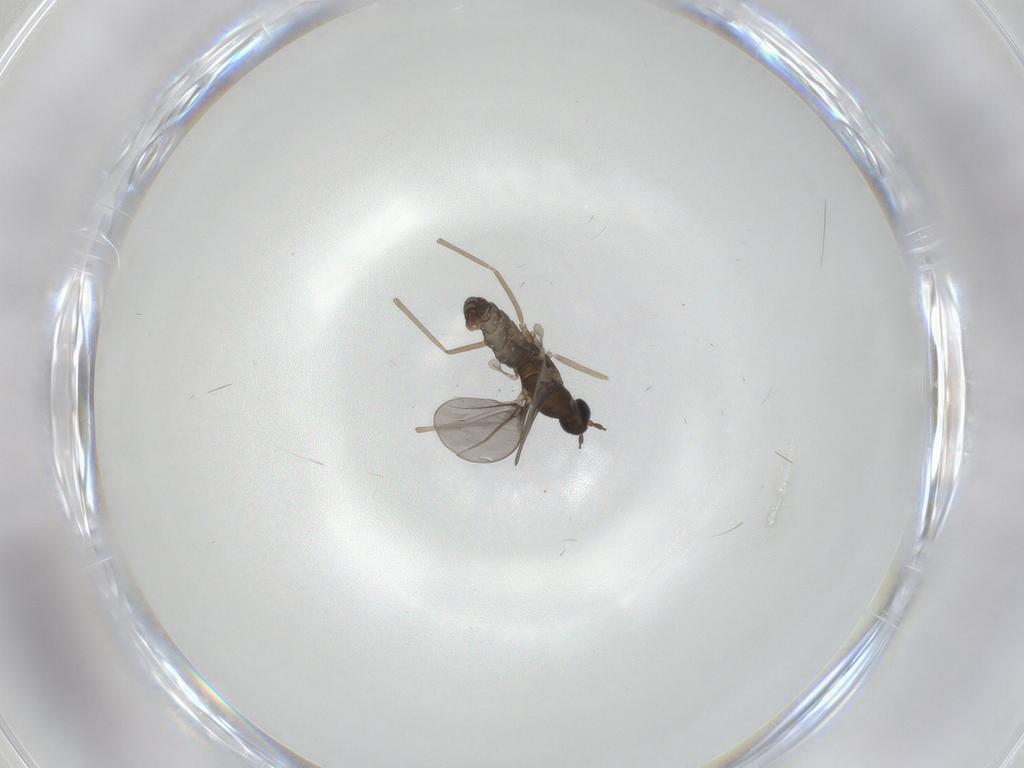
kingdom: Animalia
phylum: Arthropoda
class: Insecta
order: Diptera
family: Cecidomyiidae
